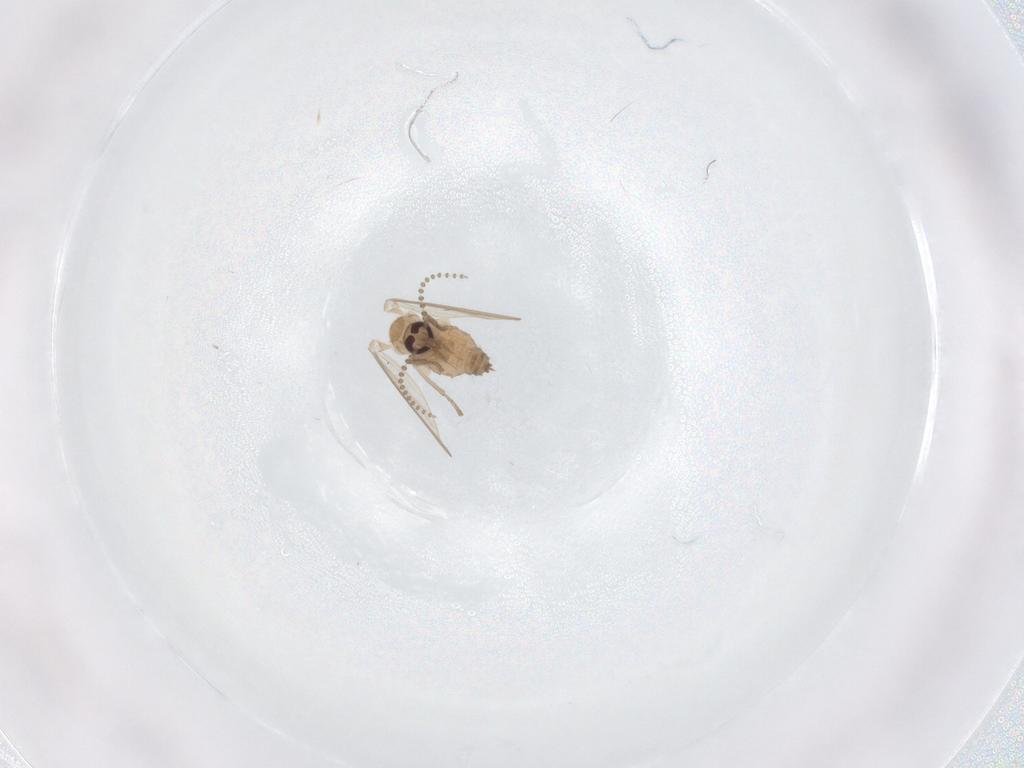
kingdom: Animalia
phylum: Arthropoda
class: Insecta
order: Diptera
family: Psychodidae
